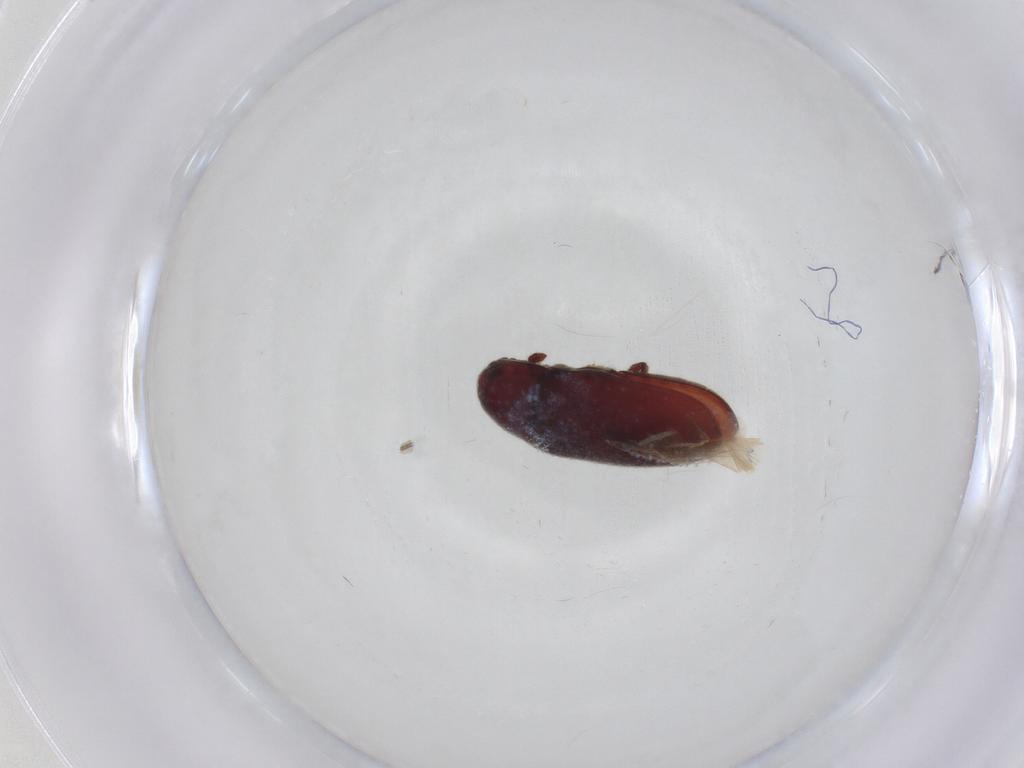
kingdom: Animalia
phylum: Arthropoda
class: Insecta
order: Coleoptera
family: Throscidae
